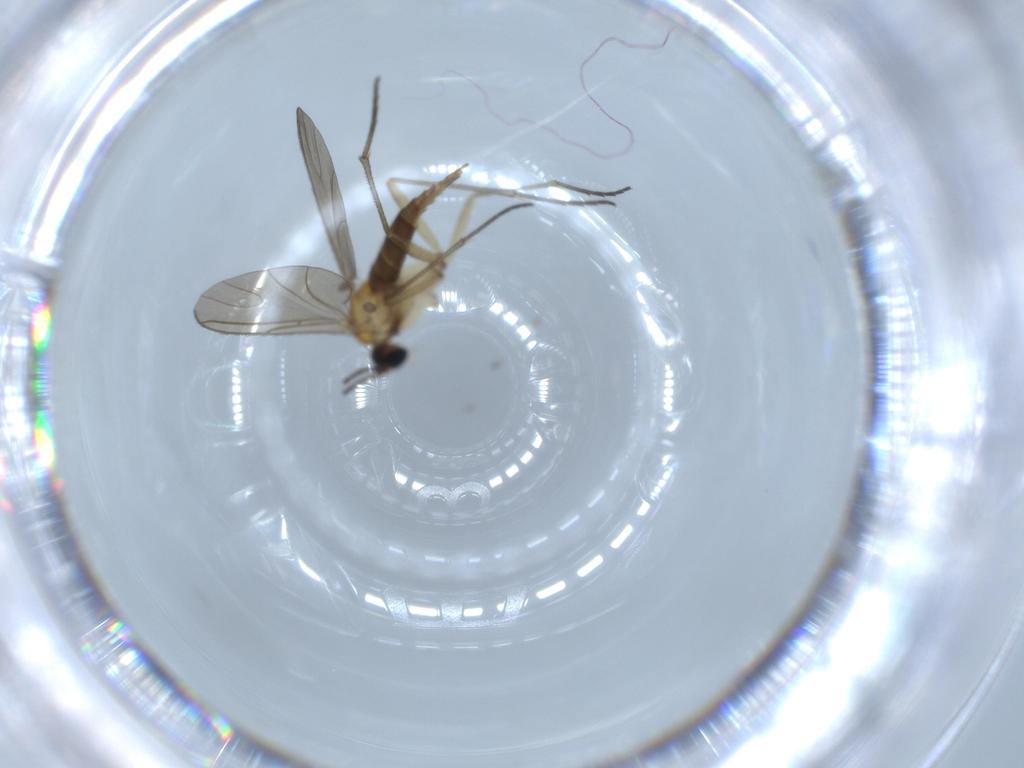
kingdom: Animalia
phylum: Arthropoda
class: Insecta
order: Diptera
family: Sciaridae
